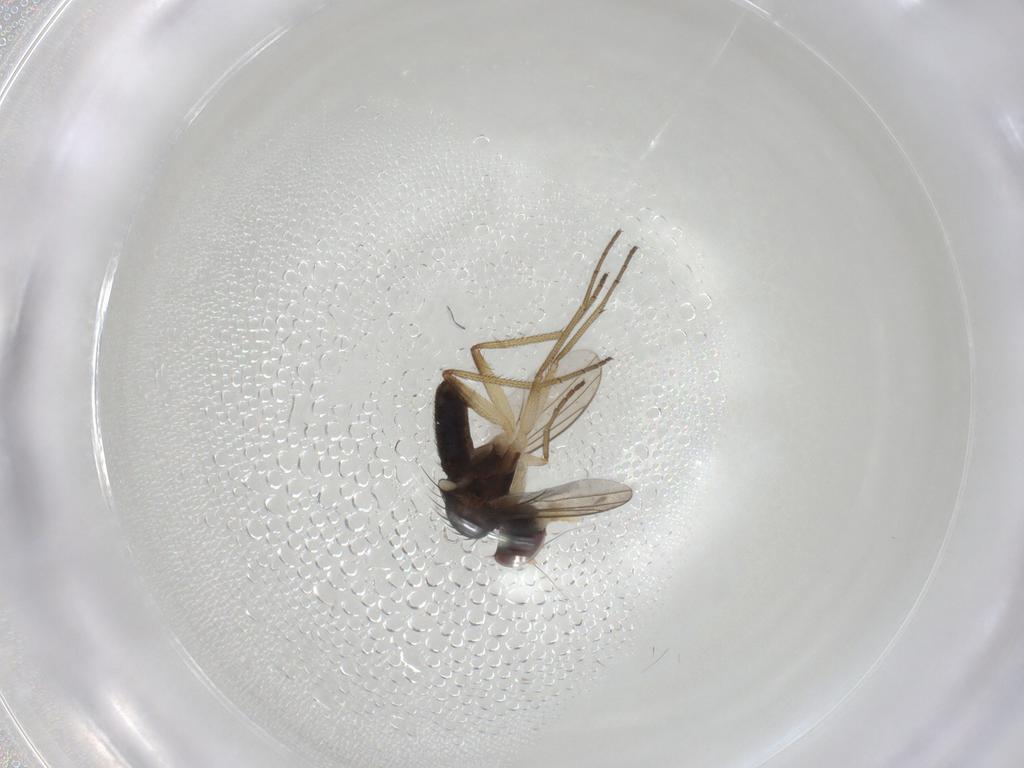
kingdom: Animalia
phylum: Arthropoda
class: Insecta
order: Diptera
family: Dolichopodidae
